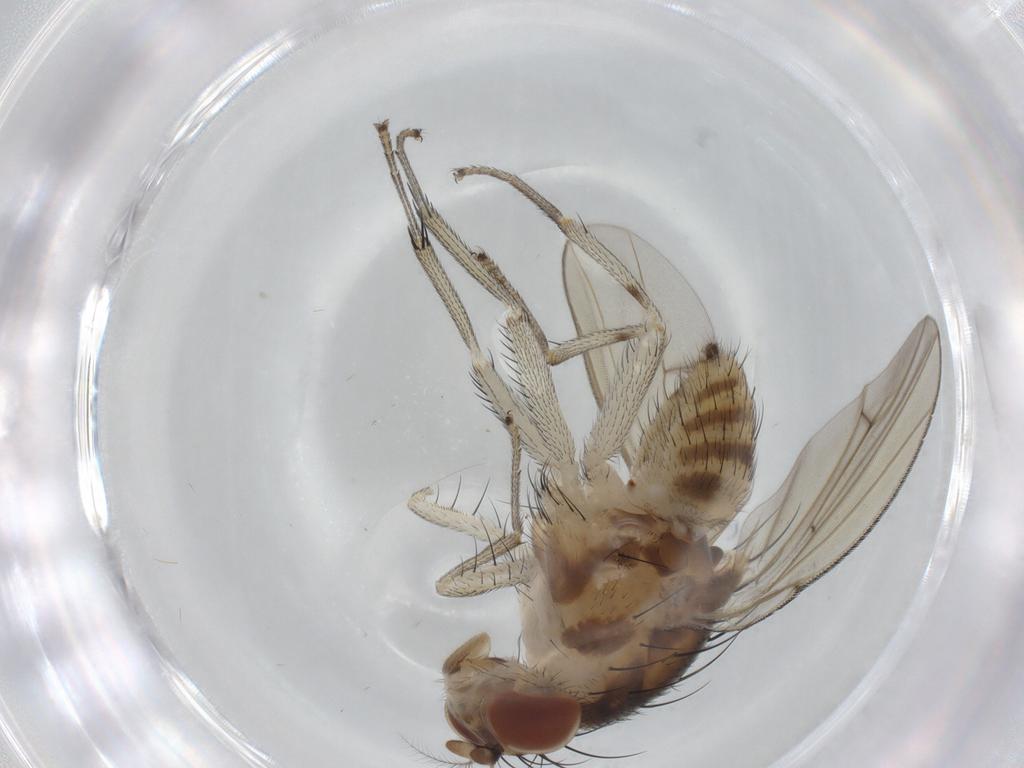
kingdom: Animalia
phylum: Arthropoda
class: Insecta
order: Diptera
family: Lauxaniidae
